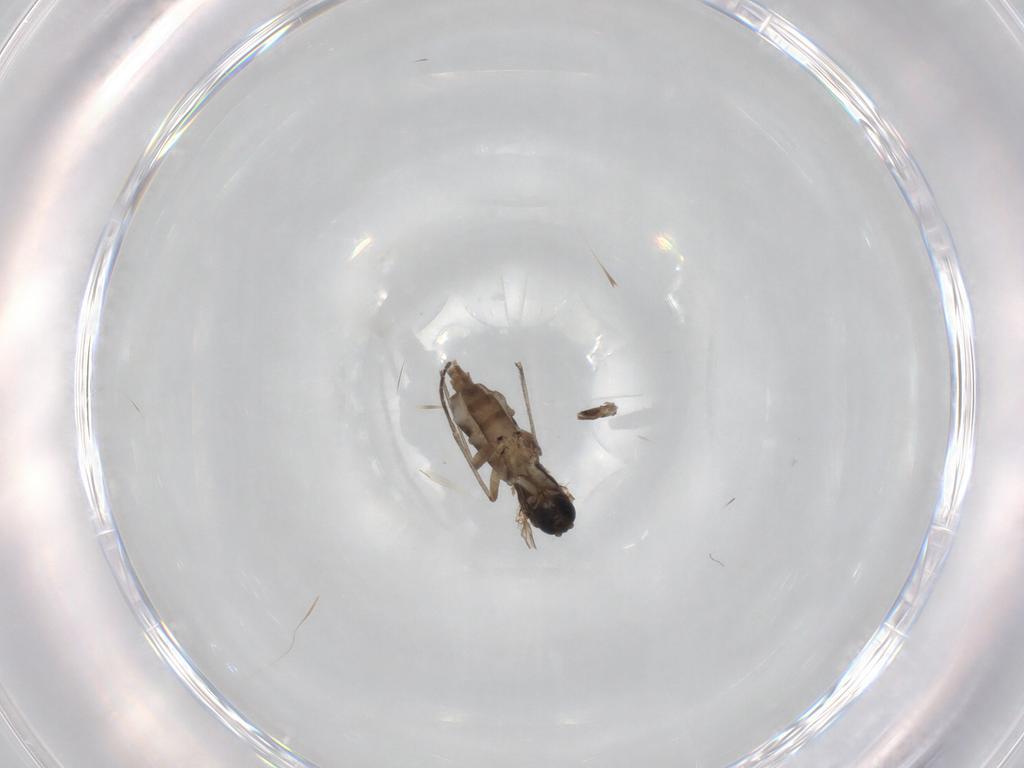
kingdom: Animalia
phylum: Arthropoda
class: Insecta
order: Diptera
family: Sciaridae
